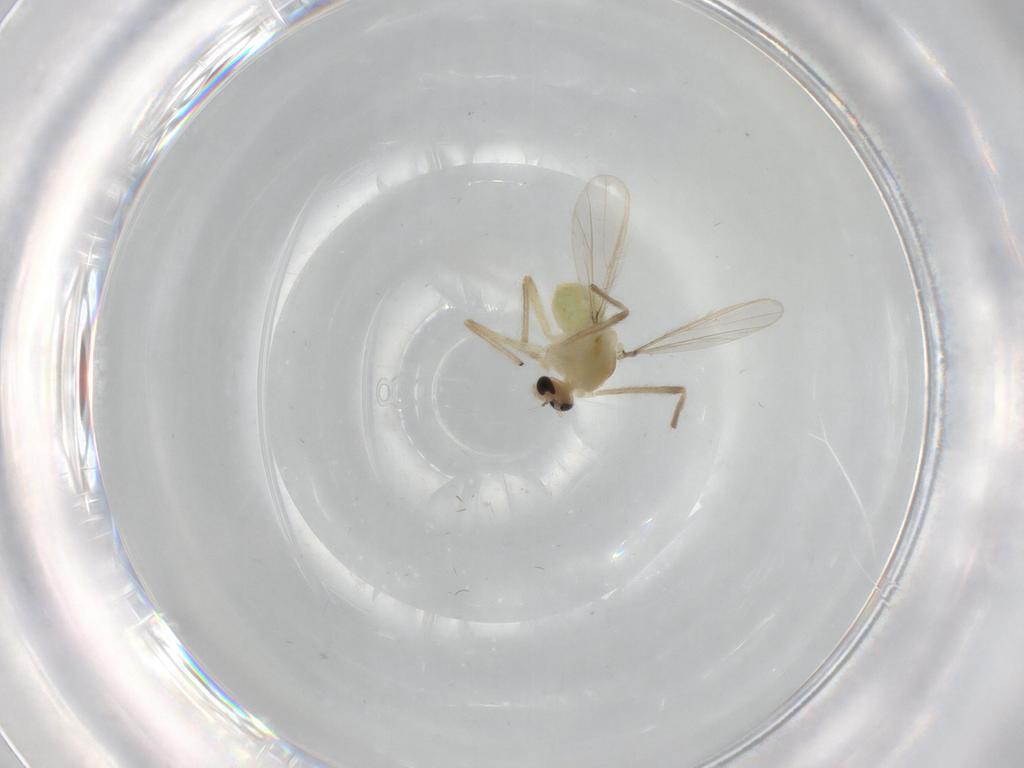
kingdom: Animalia
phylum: Arthropoda
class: Insecta
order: Diptera
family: Chironomidae
